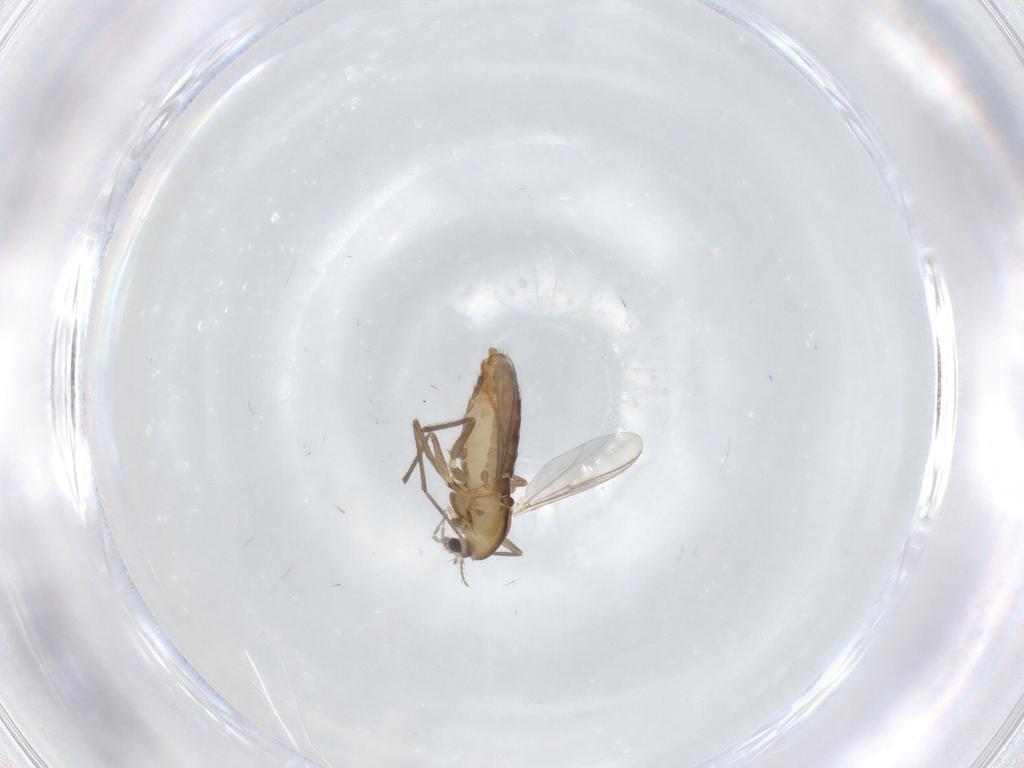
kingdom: Animalia
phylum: Arthropoda
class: Insecta
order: Diptera
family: Chironomidae
